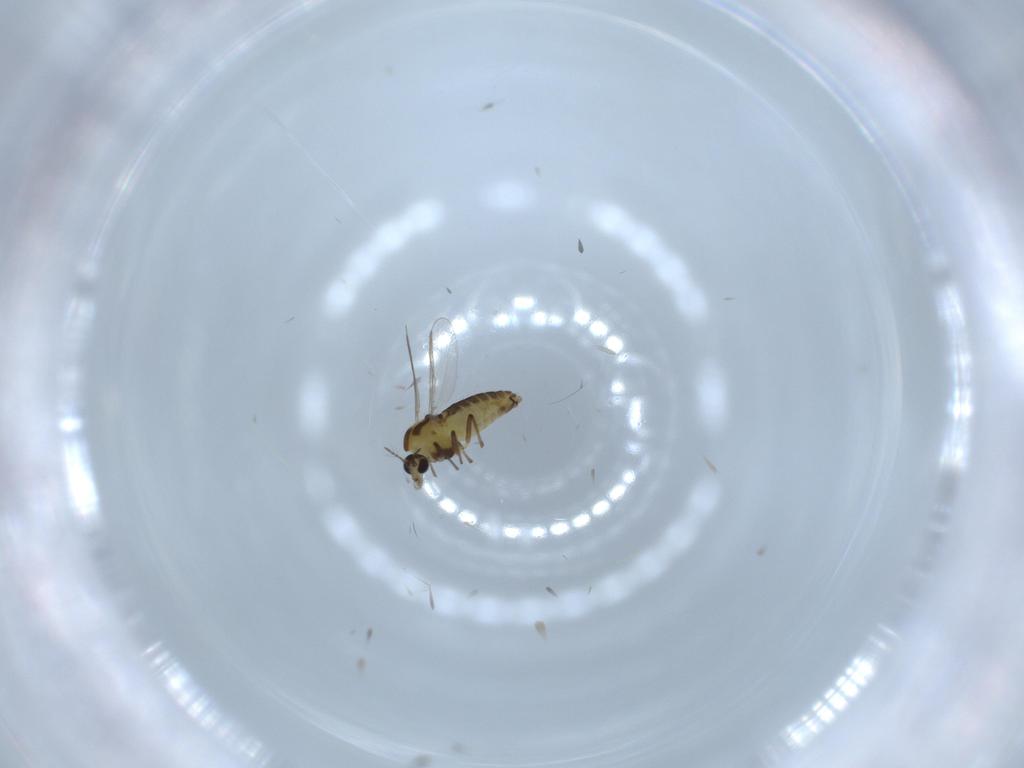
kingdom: Animalia
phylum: Arthropoda
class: Insecta
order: Diptera
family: Chironomidae
